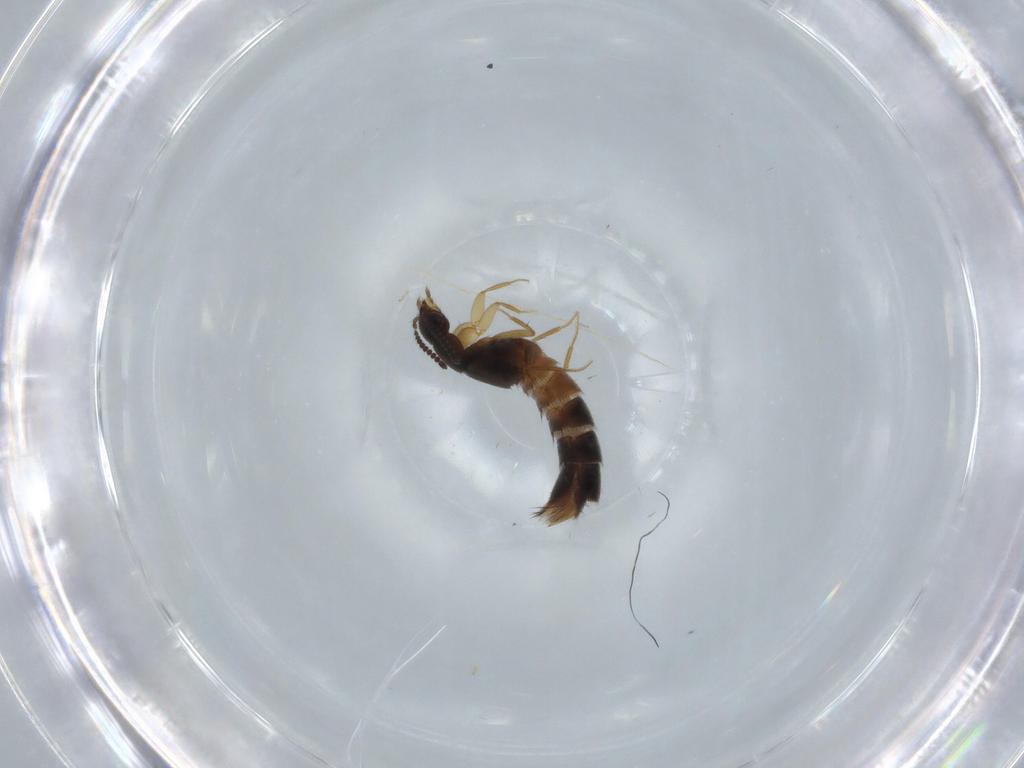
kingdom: Animalia
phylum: Arthropoda
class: Insecta
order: Coleoptera
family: Staphylinidae
